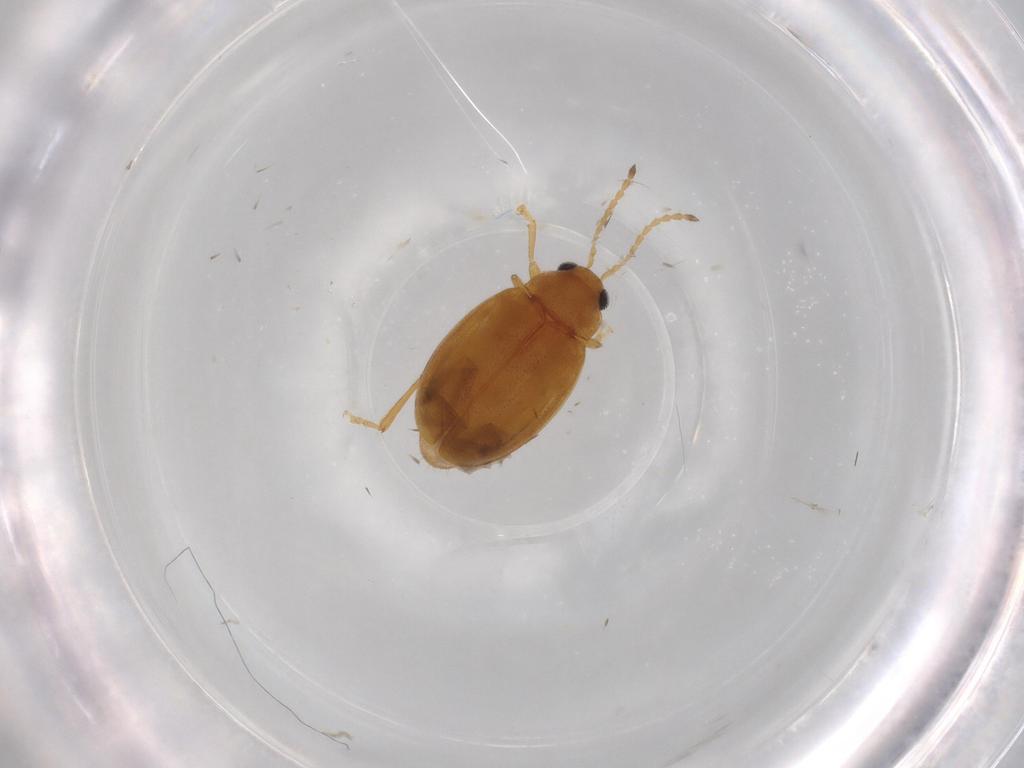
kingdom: Animalia
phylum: Arthropoda
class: Insecta
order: Coleoptera
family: Chrysomelidae
